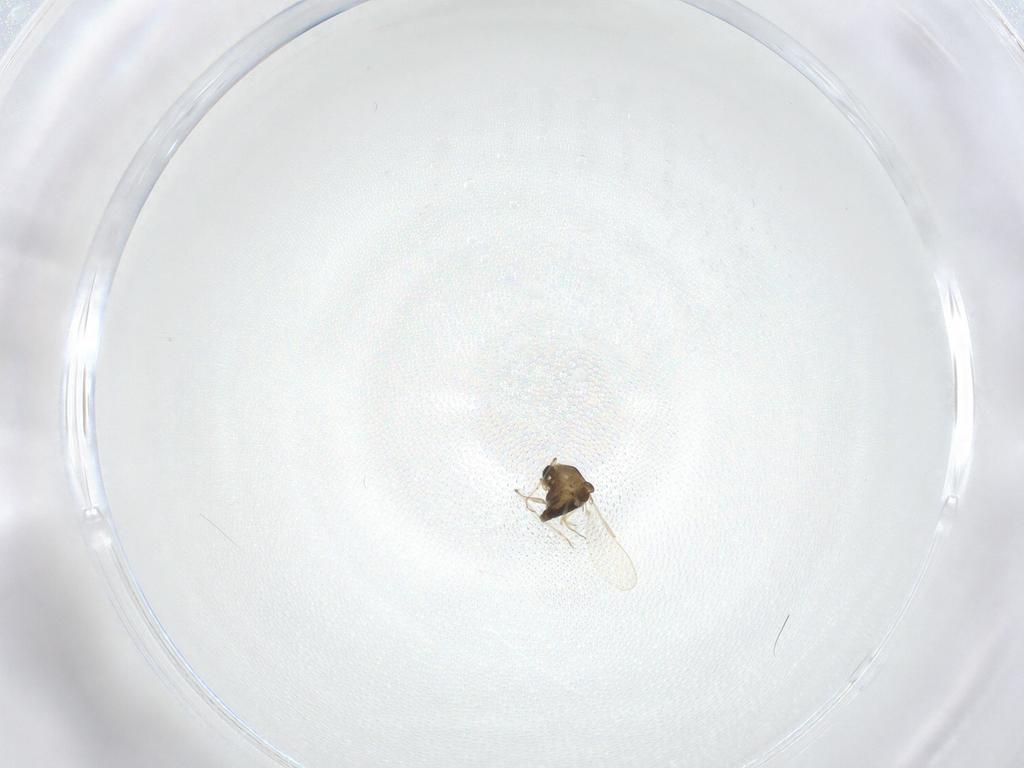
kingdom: Animalia
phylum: Arthropoda
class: Insecta
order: Diptera
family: Chironomidae
